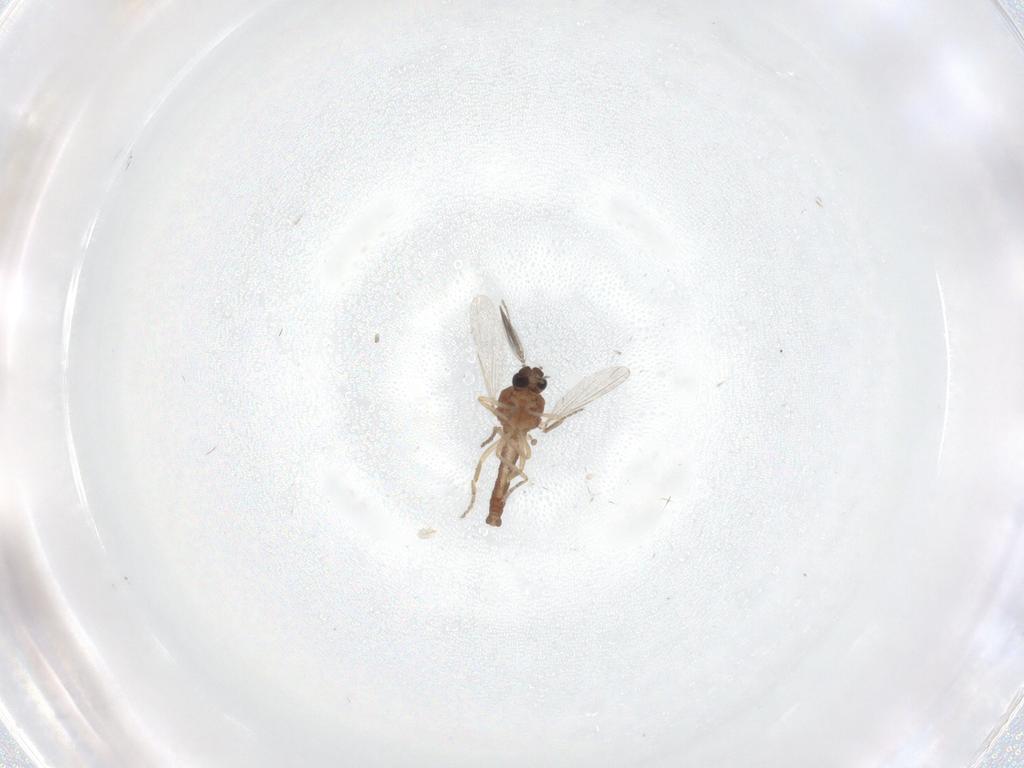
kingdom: Animalia
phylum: Arthropoda
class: Insecta
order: Diptera
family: Ceratopogonidae
